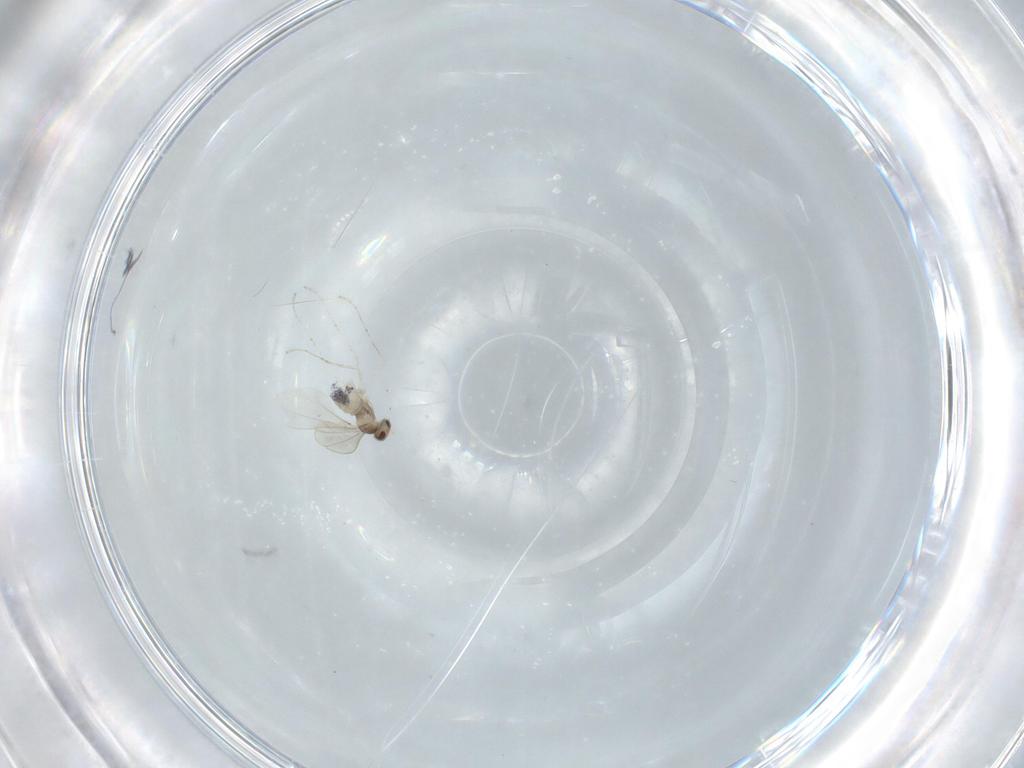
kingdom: Animalia
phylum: Arthropoda
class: Insecta
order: Diptera
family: Cecidomyiidae
